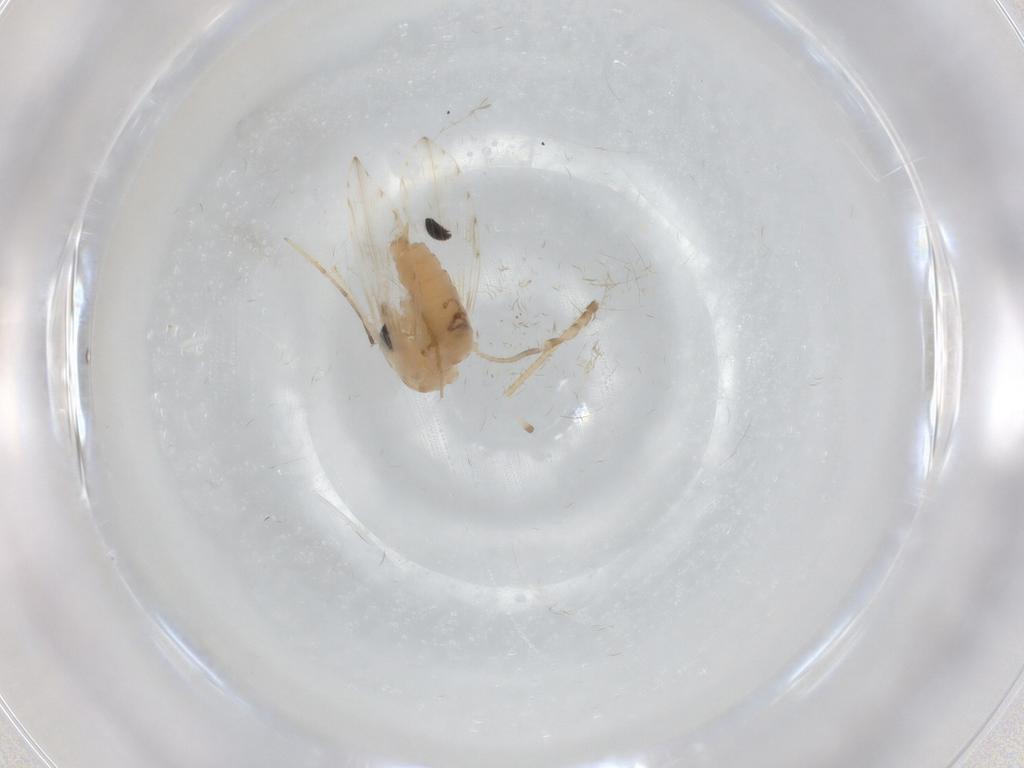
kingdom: Animalia
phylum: Arthropoda
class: Insecta
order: Diptera
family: Psychodidae
